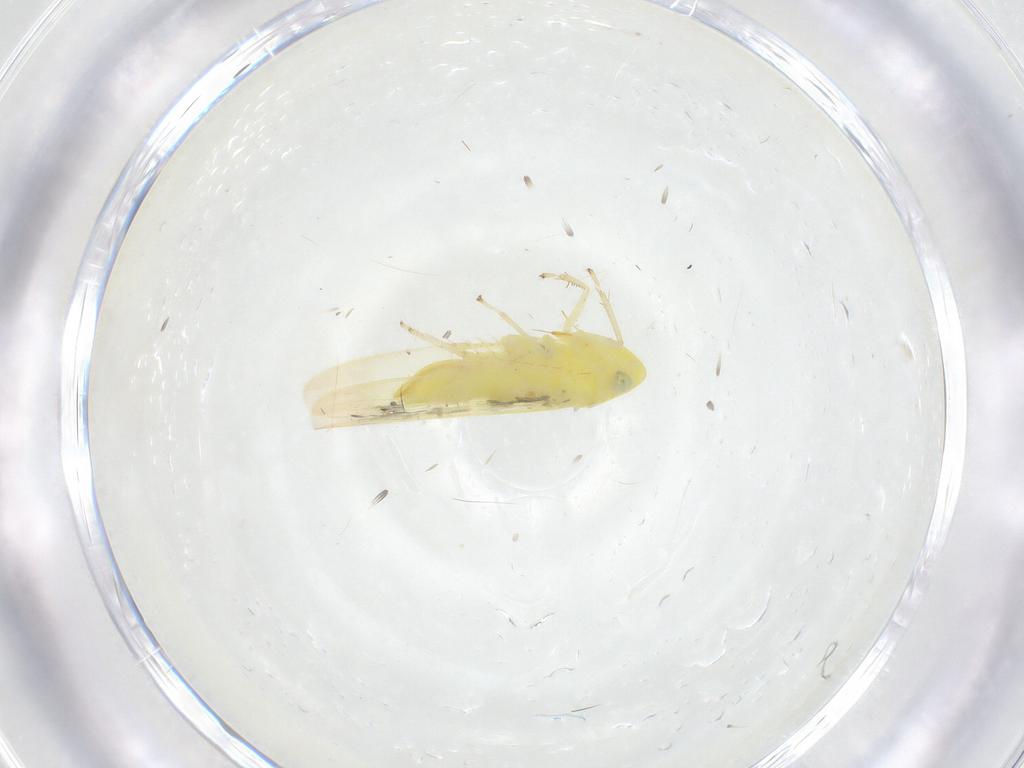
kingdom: Animalia
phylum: Arthropoda
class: Insecta
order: Hemiptera
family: Cicadellidae
